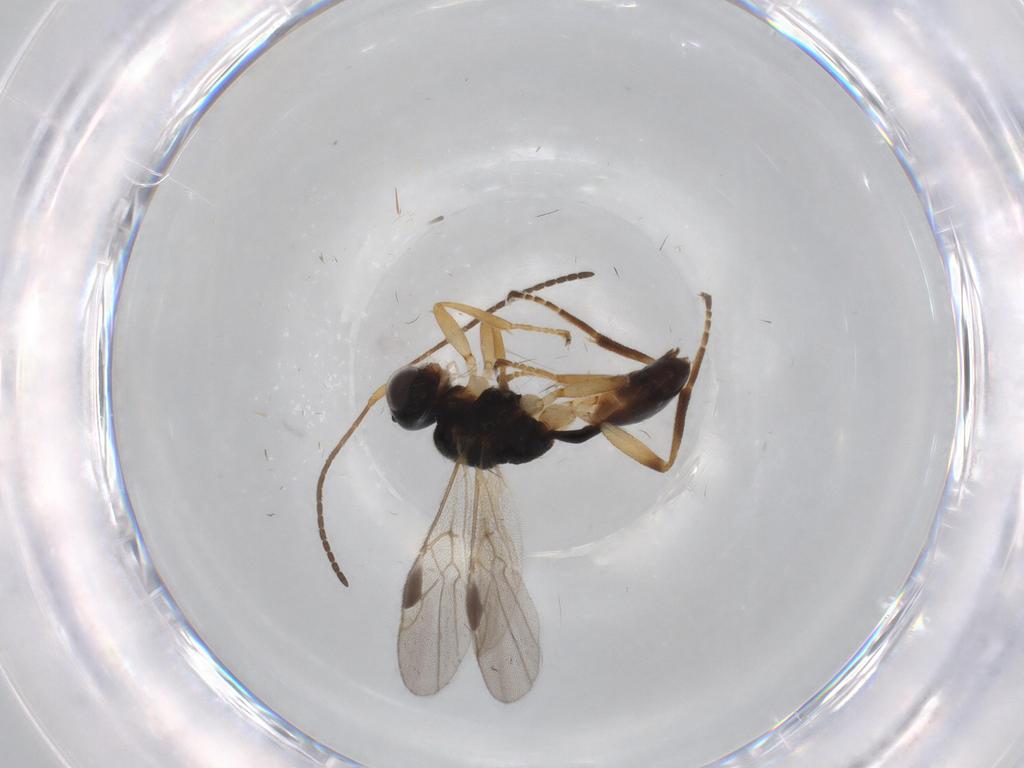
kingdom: Animalia
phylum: Arthropoda
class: Insecta
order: Hymenoptera
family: Braconidae
